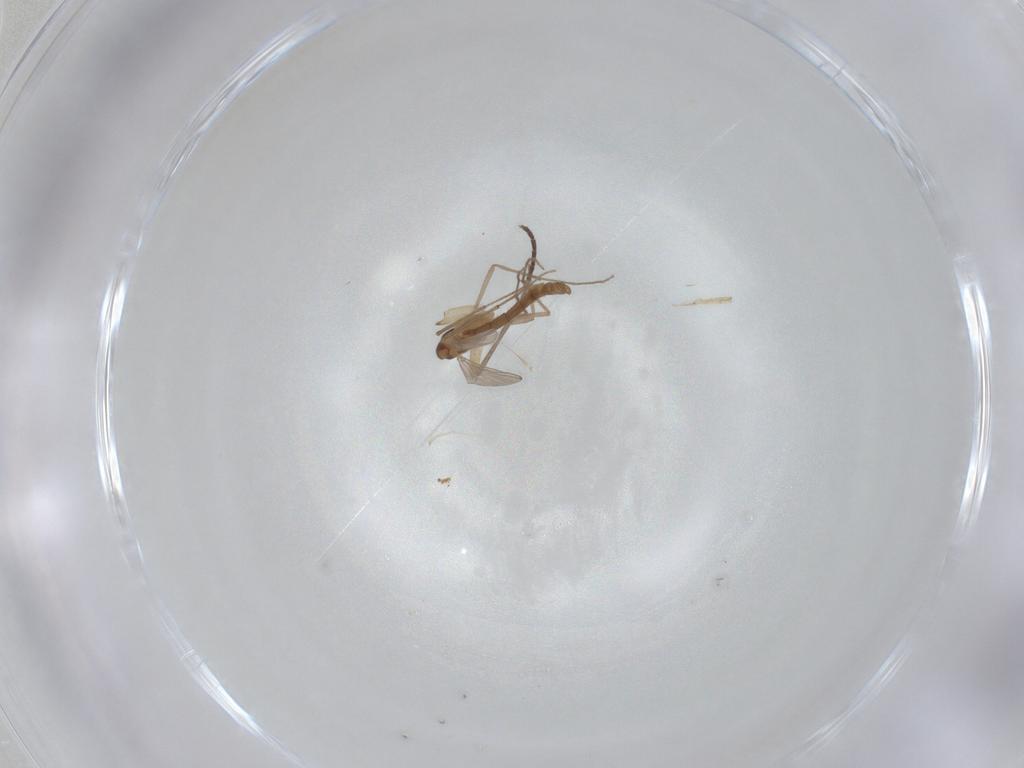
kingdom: Animalia
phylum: Arthropoda
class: Insecta
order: Diptera
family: Chironomidae
